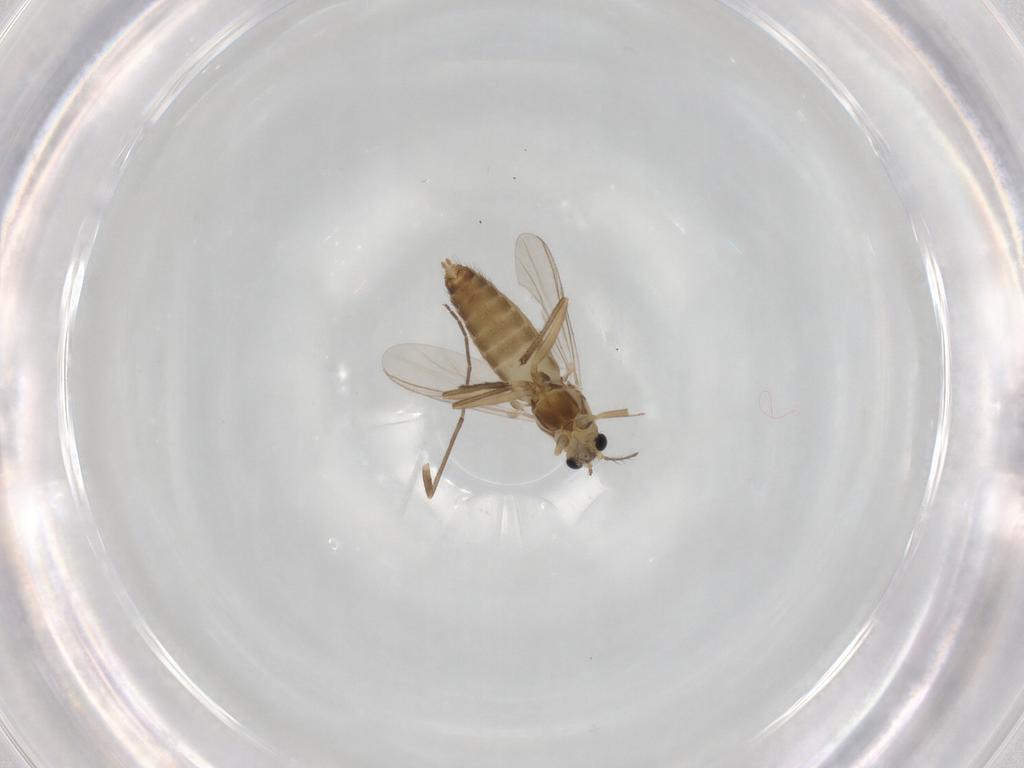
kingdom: Animalia
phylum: Arthropoda
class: Insecta
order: Diptera
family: Chironomidae
